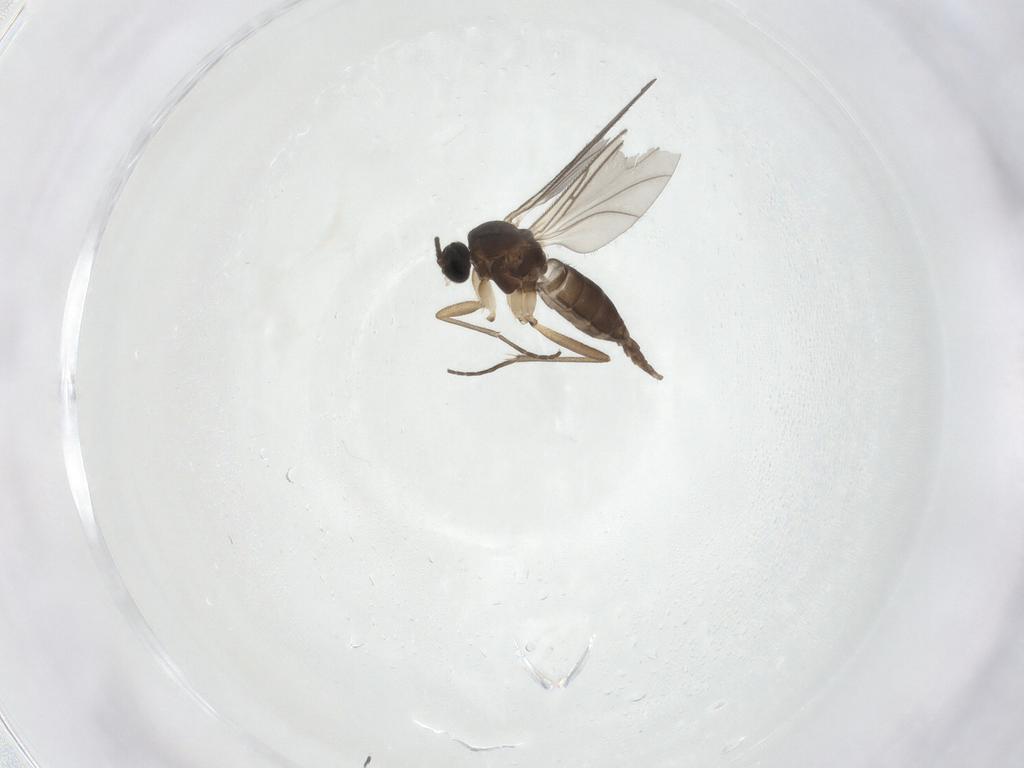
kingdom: Animalia
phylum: Arthropoda
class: Insecta
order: Diptera
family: Sciaridae
